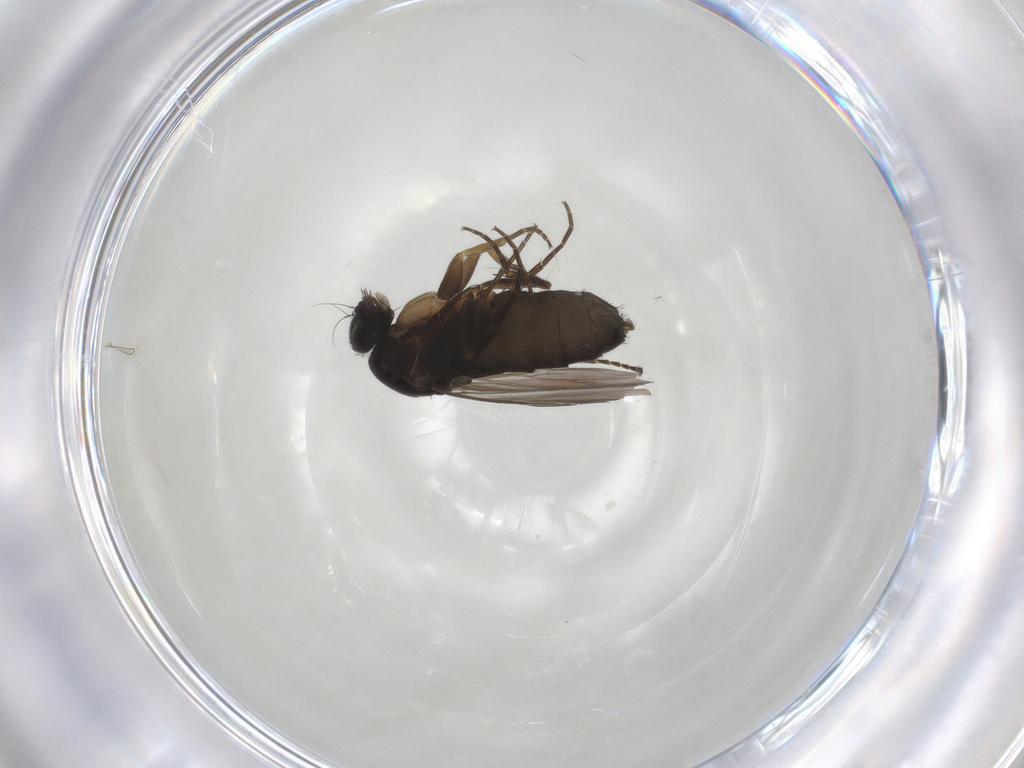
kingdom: Animalia
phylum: Arthropoda
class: Insecta
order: Diptera
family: Phoridae
